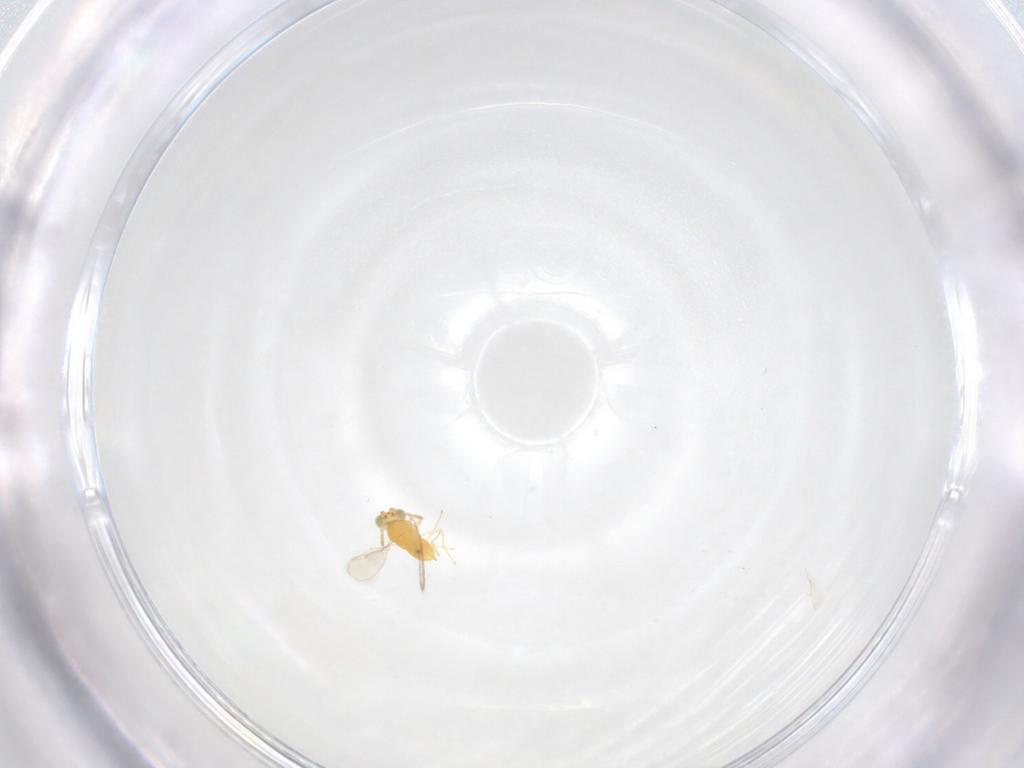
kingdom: Animalia
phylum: Arthropoda
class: Insecta
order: Hymenoptera
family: Aphelinidae
